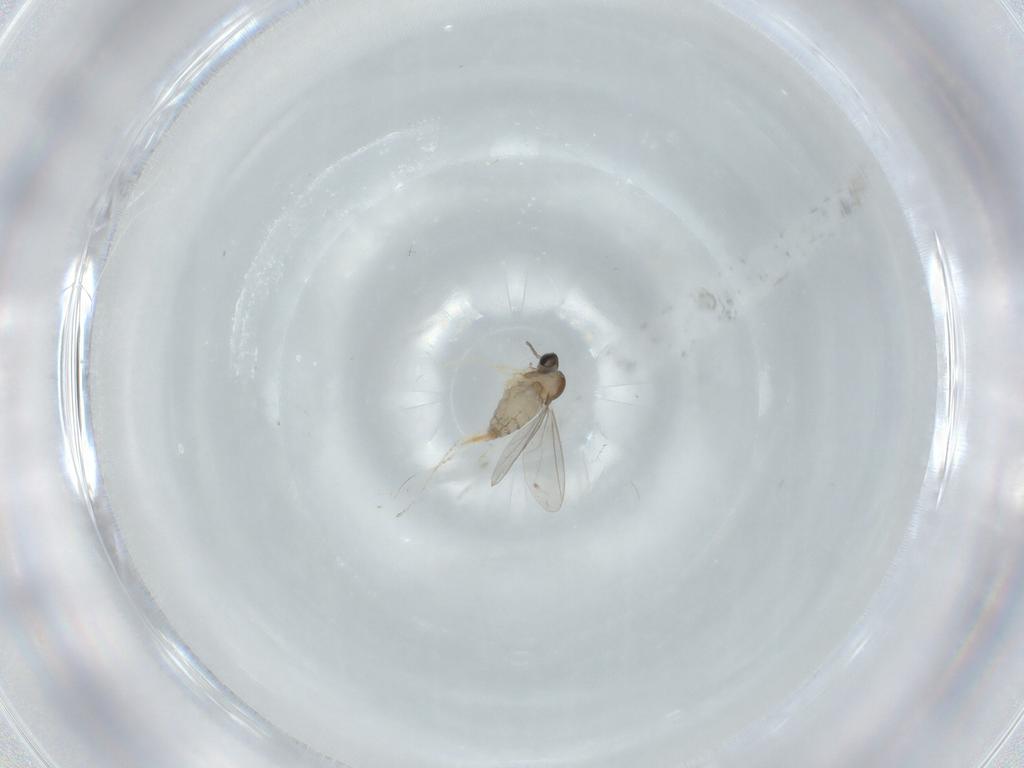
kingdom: Animalia
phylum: Arthropoda
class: Insecta
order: Diptera
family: Cecidomyiidae
